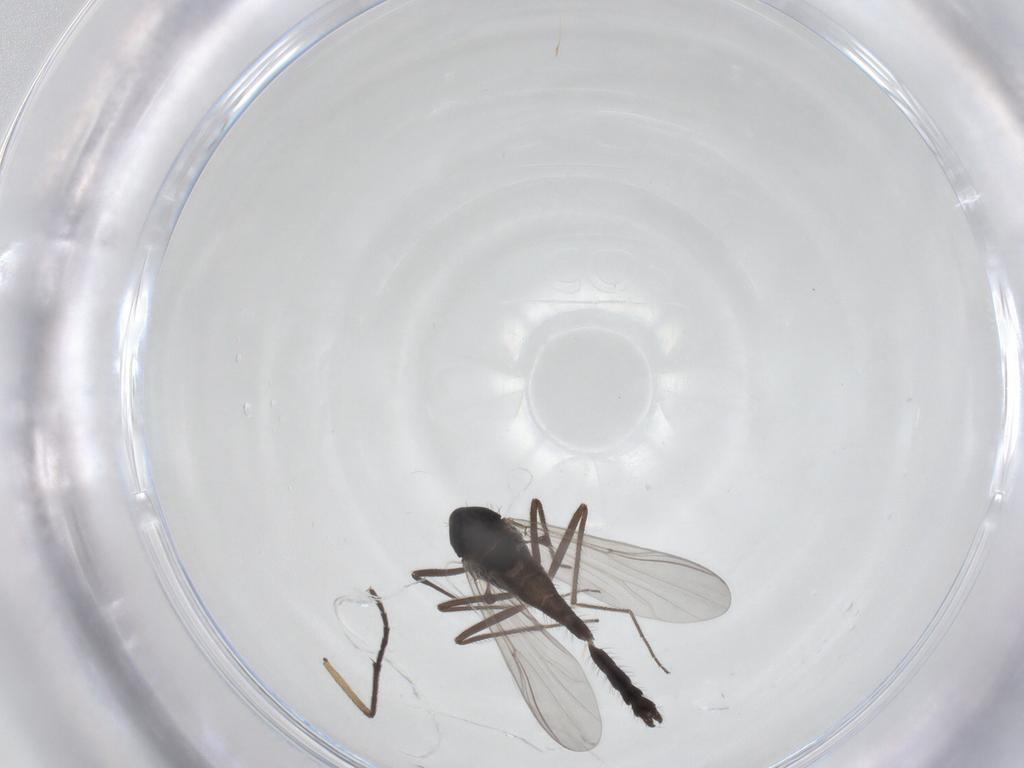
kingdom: Animalia
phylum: Arthropoda
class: Insecta
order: Diptera
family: Chironomidae
